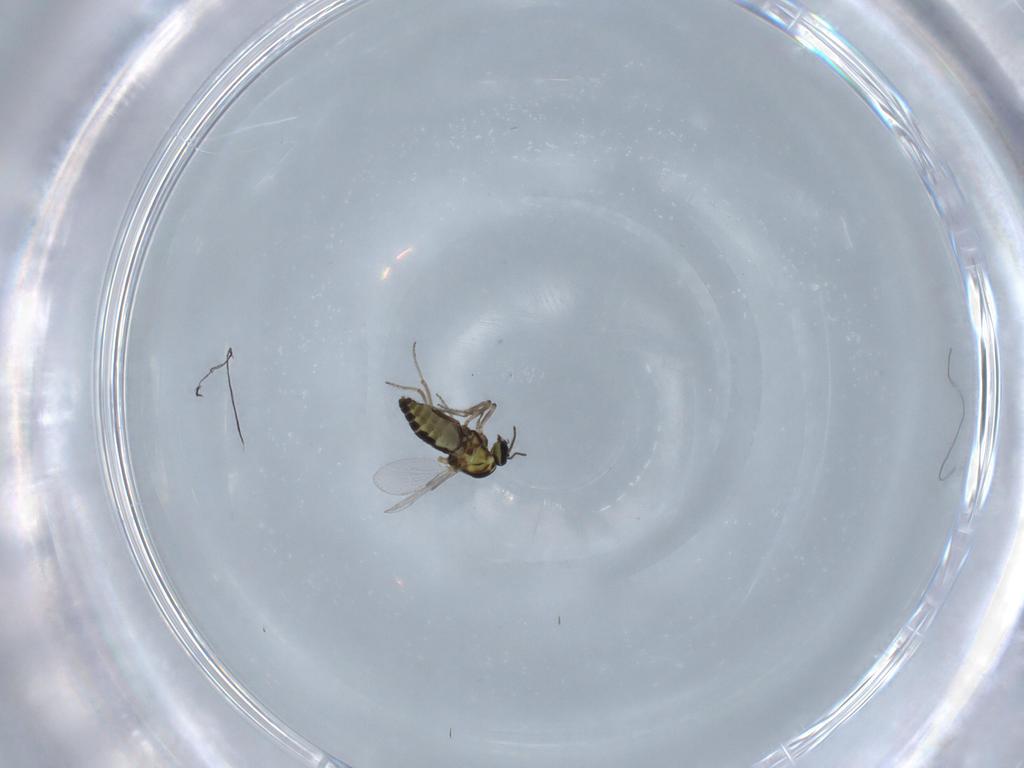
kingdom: Animalia
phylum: Arthropoda
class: Insecta
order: Diptera
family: Ceratopogonidae
